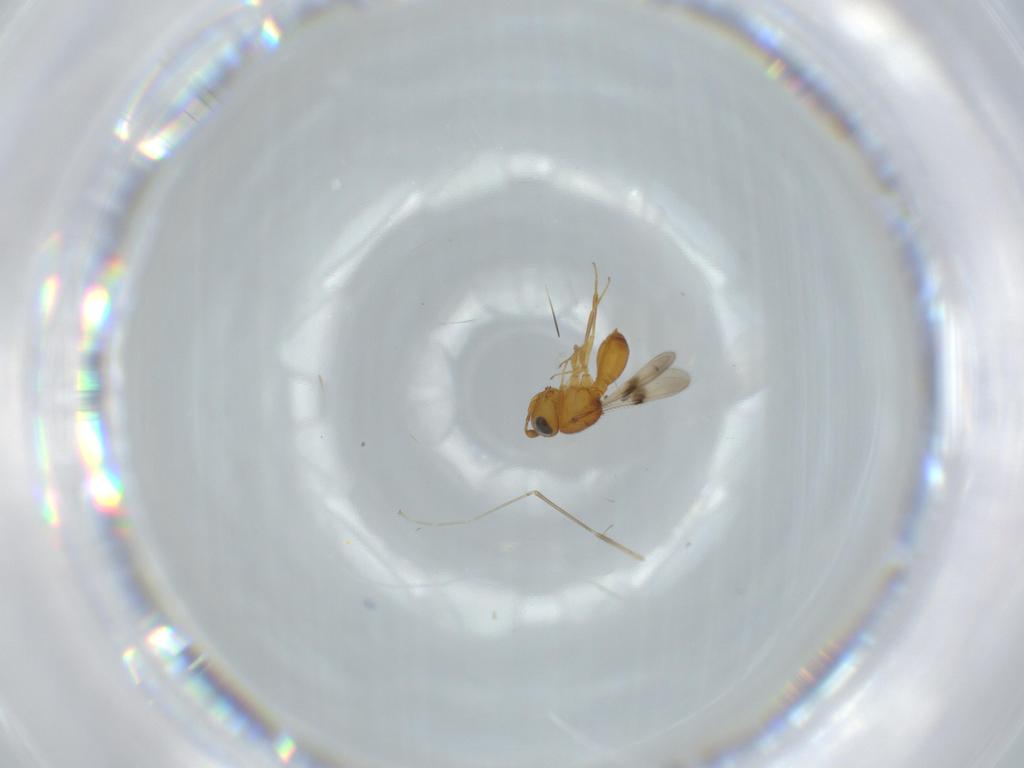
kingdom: Animalia
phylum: Arthropoda
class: Insecta
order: Hymenoptera
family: Scelionidae
